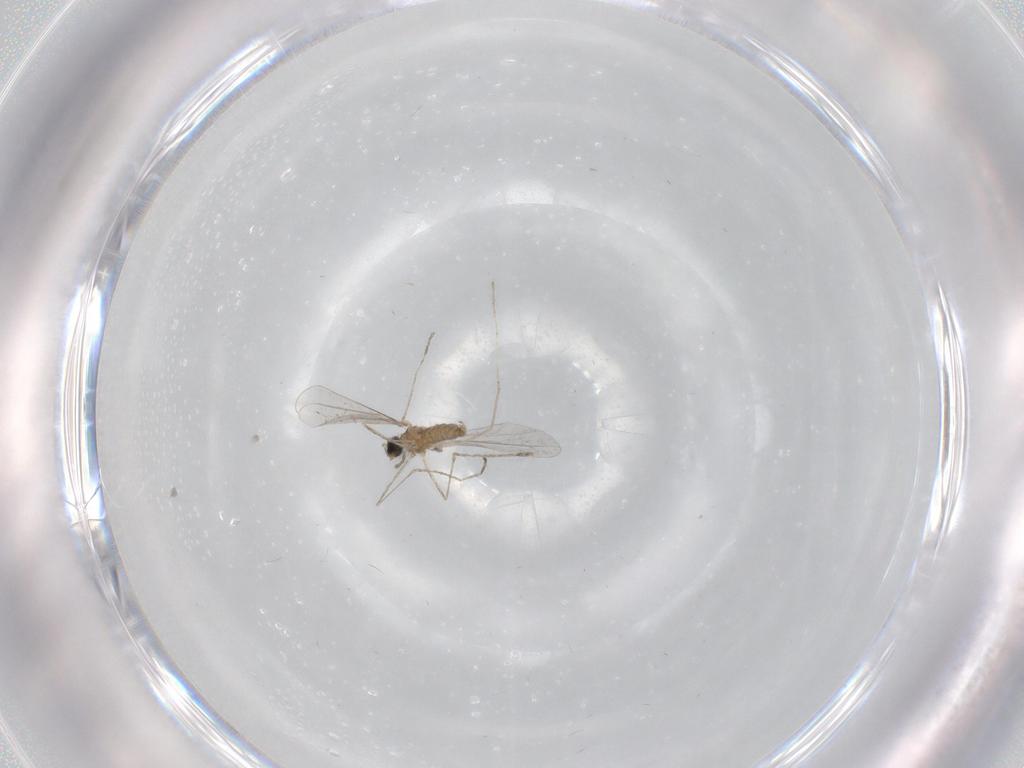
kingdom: Animalia
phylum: Arthropoda
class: Insecta
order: Diptera
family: Cecidomyiidae
